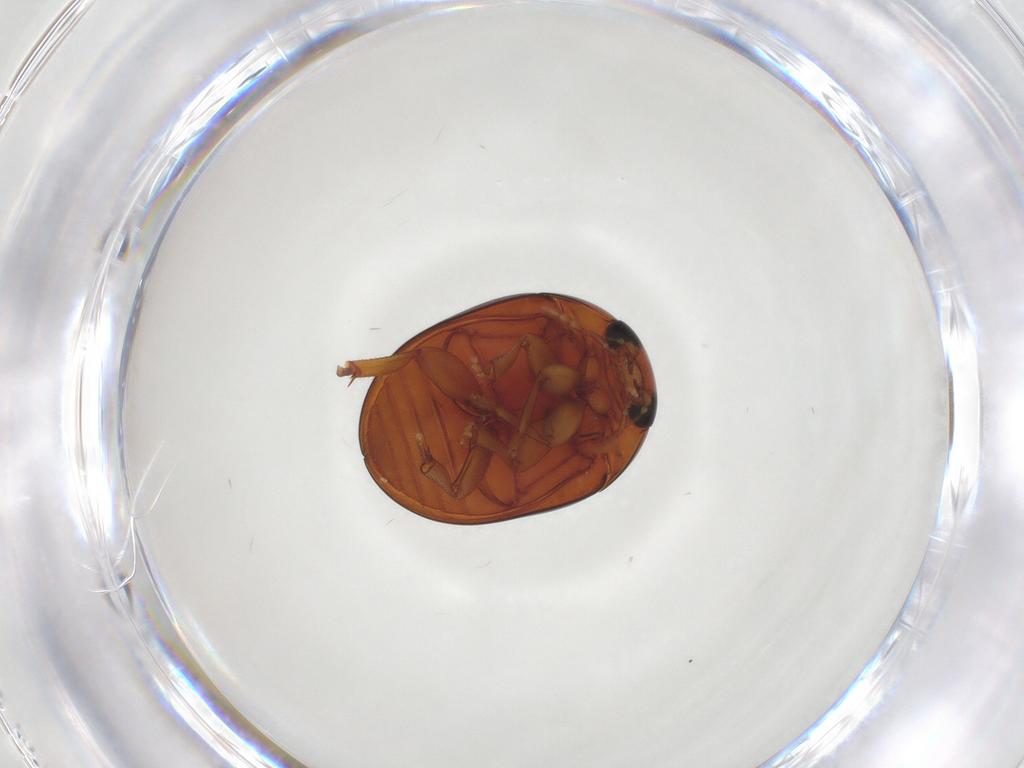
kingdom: Animalia
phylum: Arthropoda
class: Insecta
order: Coleoptera
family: Phalacridae
